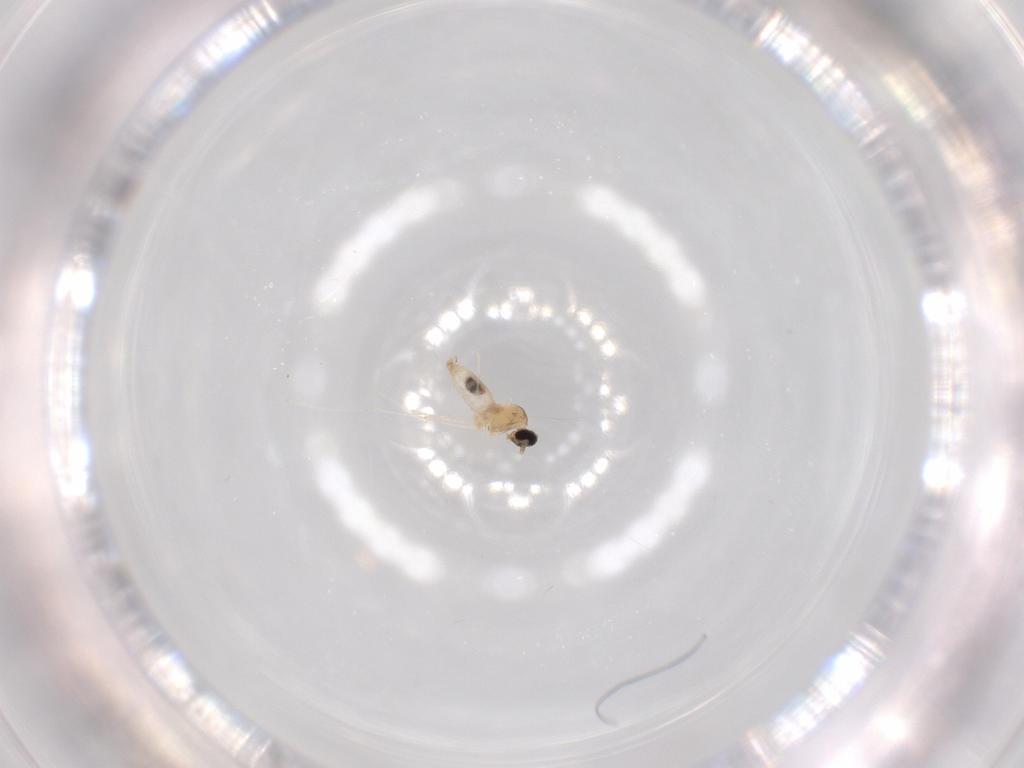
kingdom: Animalia
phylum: Arthropoda
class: Insecta
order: Diptera
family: Cecidomyiidae
